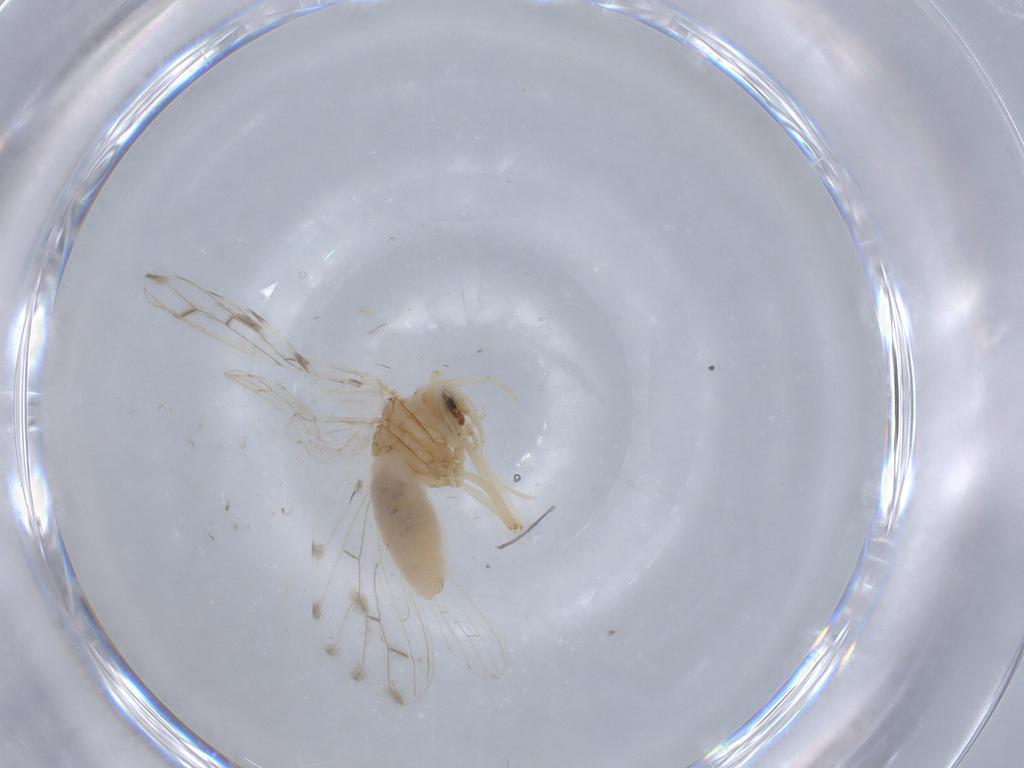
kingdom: Animalia
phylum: Arthropoda
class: Insecta
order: Neuroptera
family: Coniopterygidae
